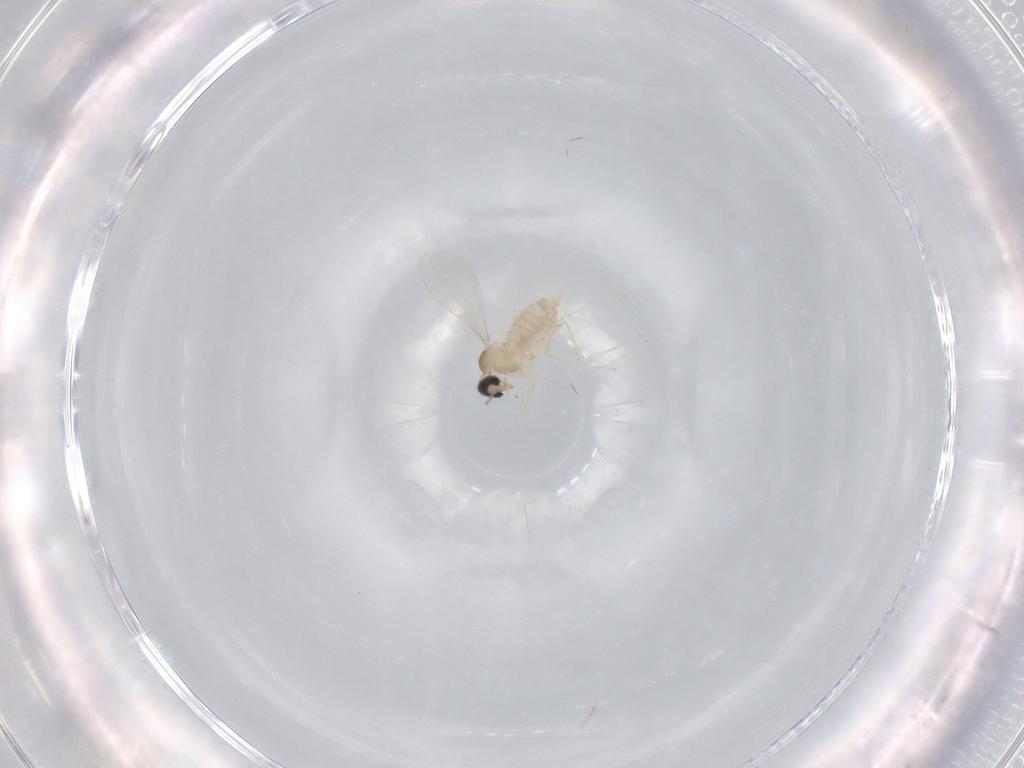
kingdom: Animalia
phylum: Arthropoda
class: Insecta
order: Diptera
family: Cecidomyiidae
